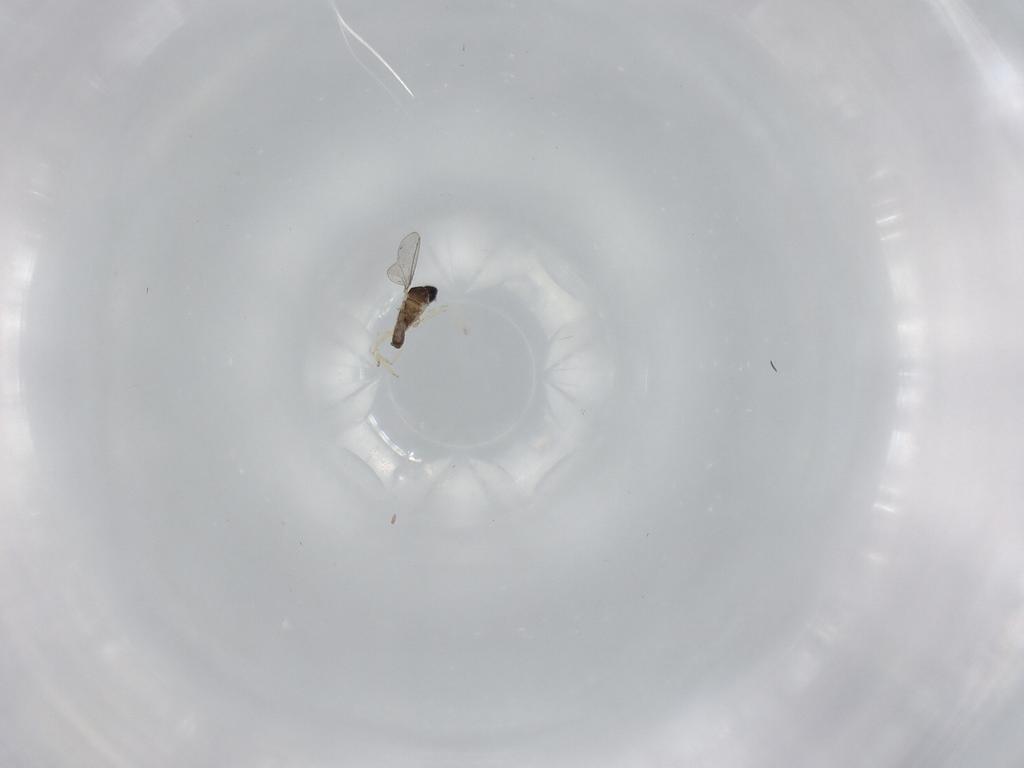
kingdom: Animalia
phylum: Arthropoda
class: Insecta
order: Diptera
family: Cecidomyiidae
